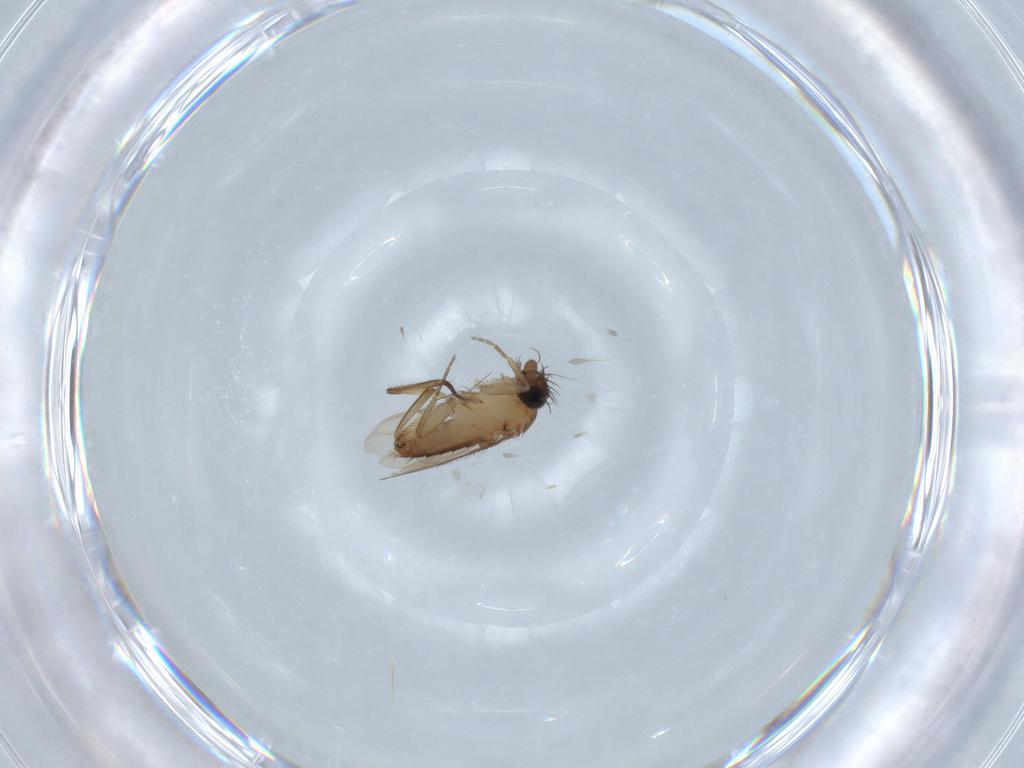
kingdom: Animalia
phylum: Arthropoda
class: Insecta
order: Diptera
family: Phoridae
